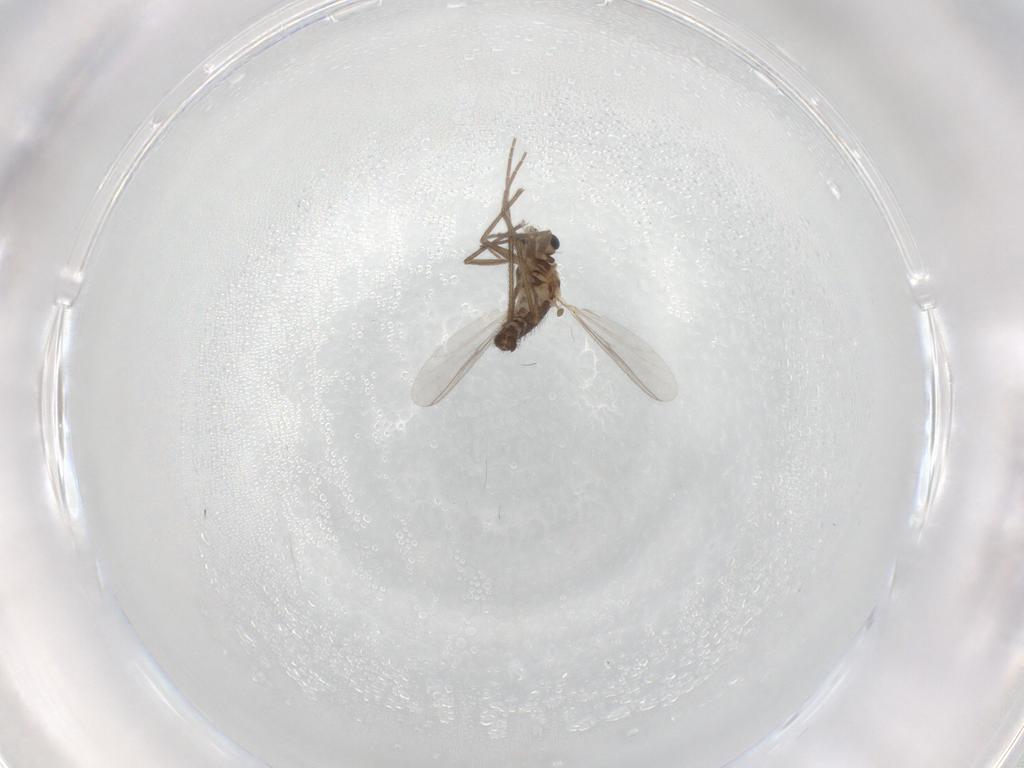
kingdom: Animalia
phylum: Arthropoda
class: Insecta
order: Diptera
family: Chironomidae
